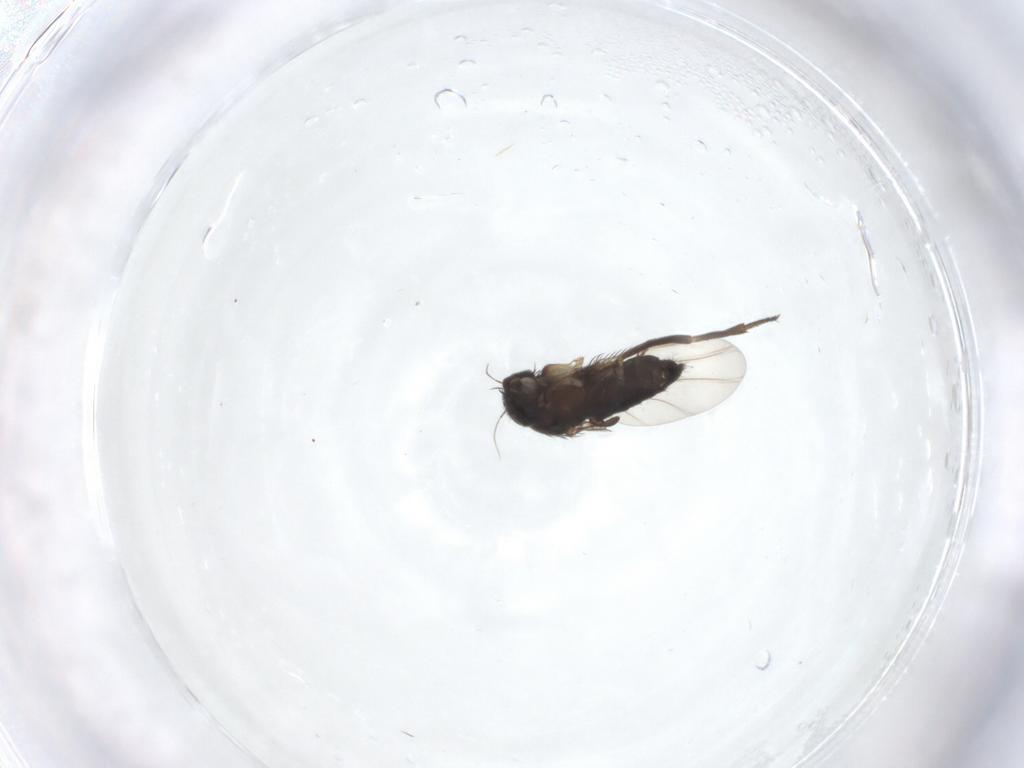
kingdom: Animalia
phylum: Arthropoda
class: Insecta
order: Diptera
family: Phoridae
